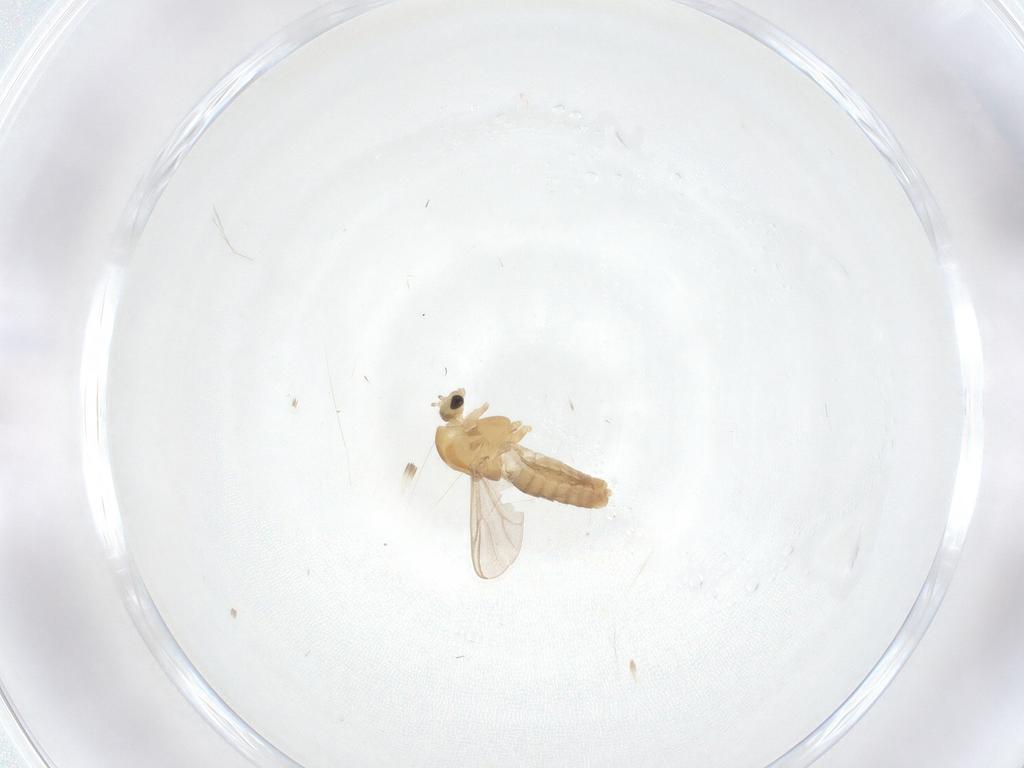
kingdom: Animalia
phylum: Arthropoda
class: Insecta
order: Diptera
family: Chironomidae
